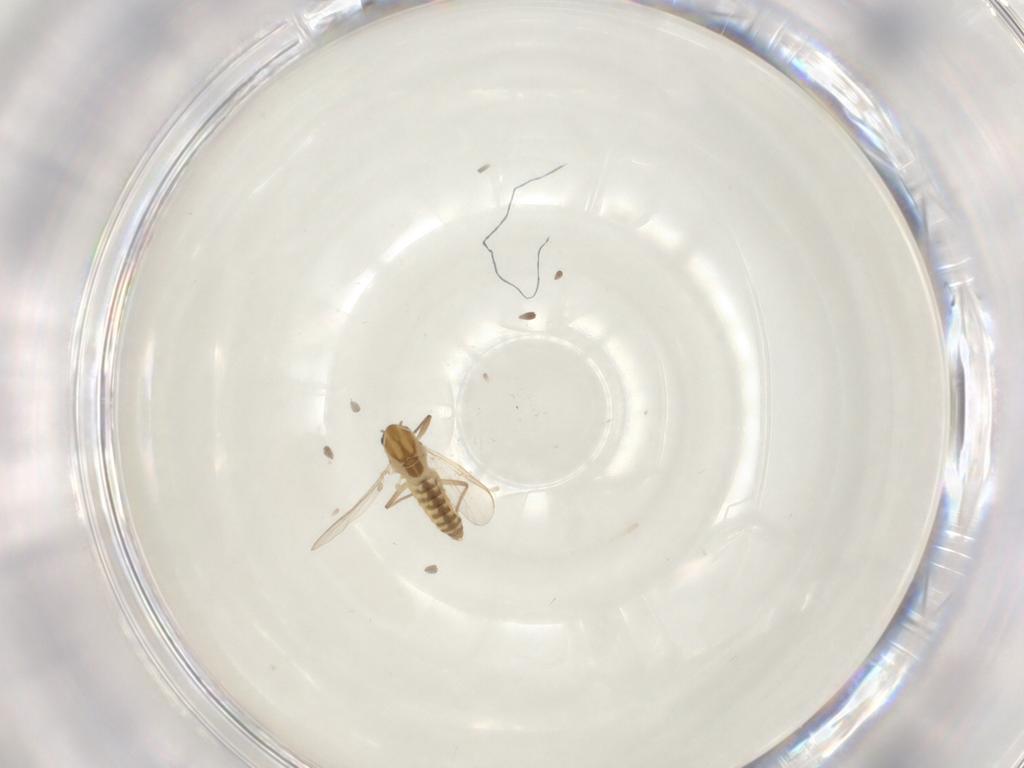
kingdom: Animalia
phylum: Arthropoda
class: Insecta
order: Diptera
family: Chironomidae
